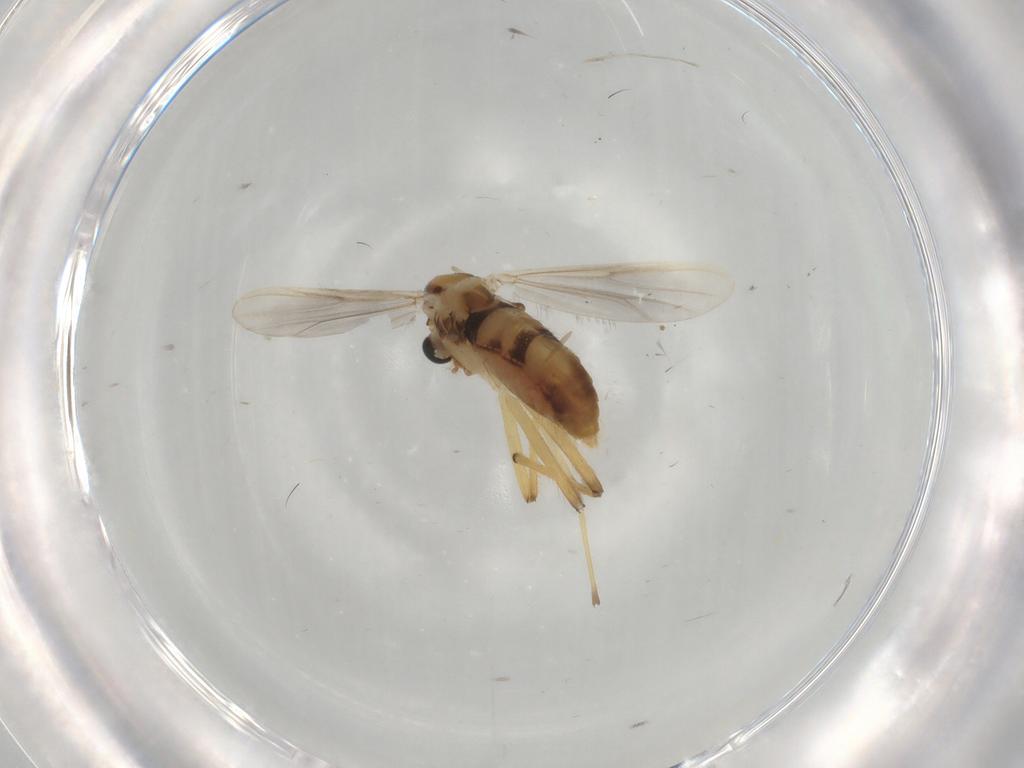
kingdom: Animalia
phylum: Arthropoda
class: Insecta
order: Diptera
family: Chironomidae
